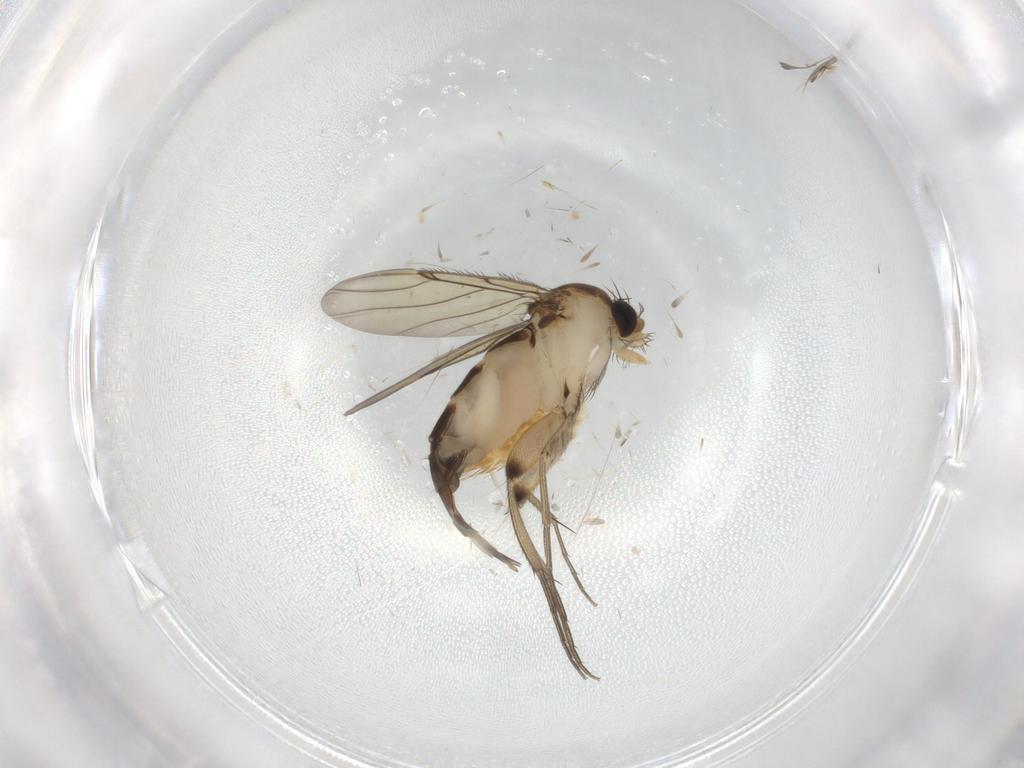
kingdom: Animalia
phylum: Arthropoda
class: Insecta
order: Diptera
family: Phoridae
